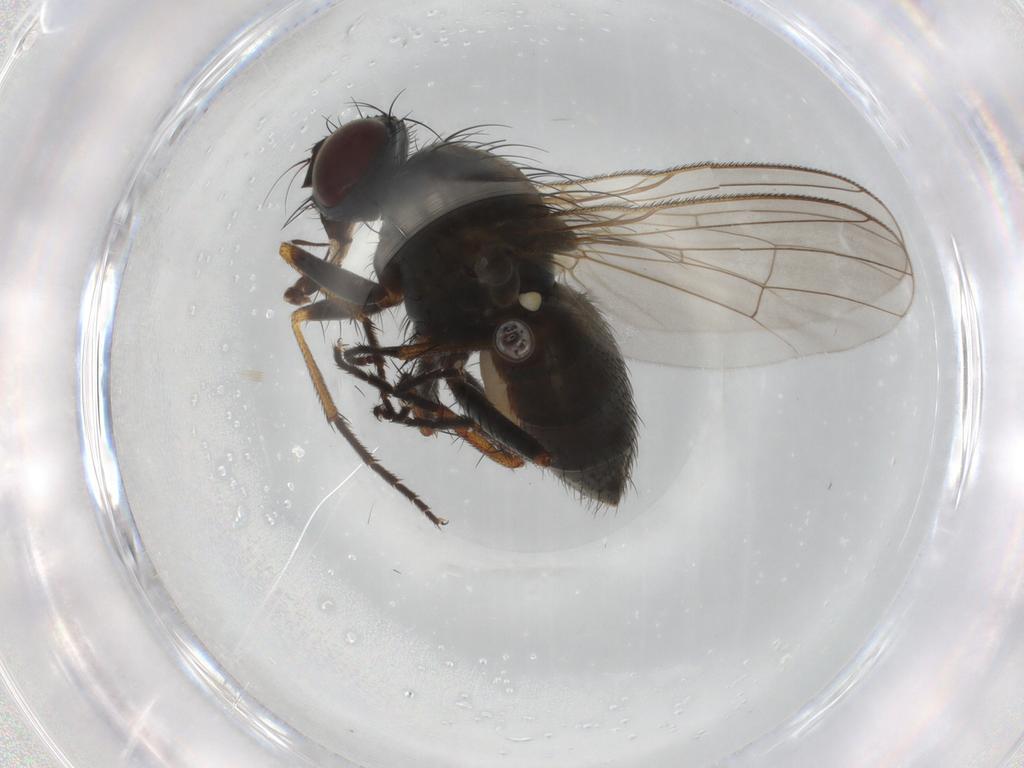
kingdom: Animalia
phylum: Arthropoda
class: Insecta
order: Diptera
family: Muscidae
